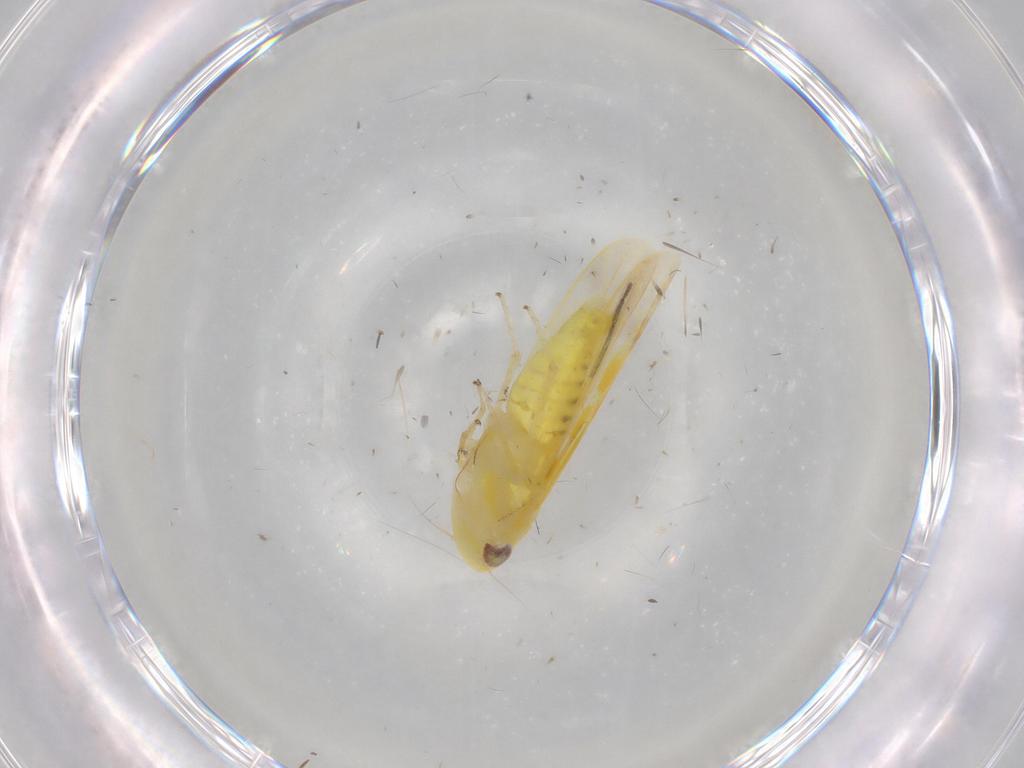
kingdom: Animalia
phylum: Arthropoda
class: Insecta
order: Hemiptera
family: Cicadellidae
